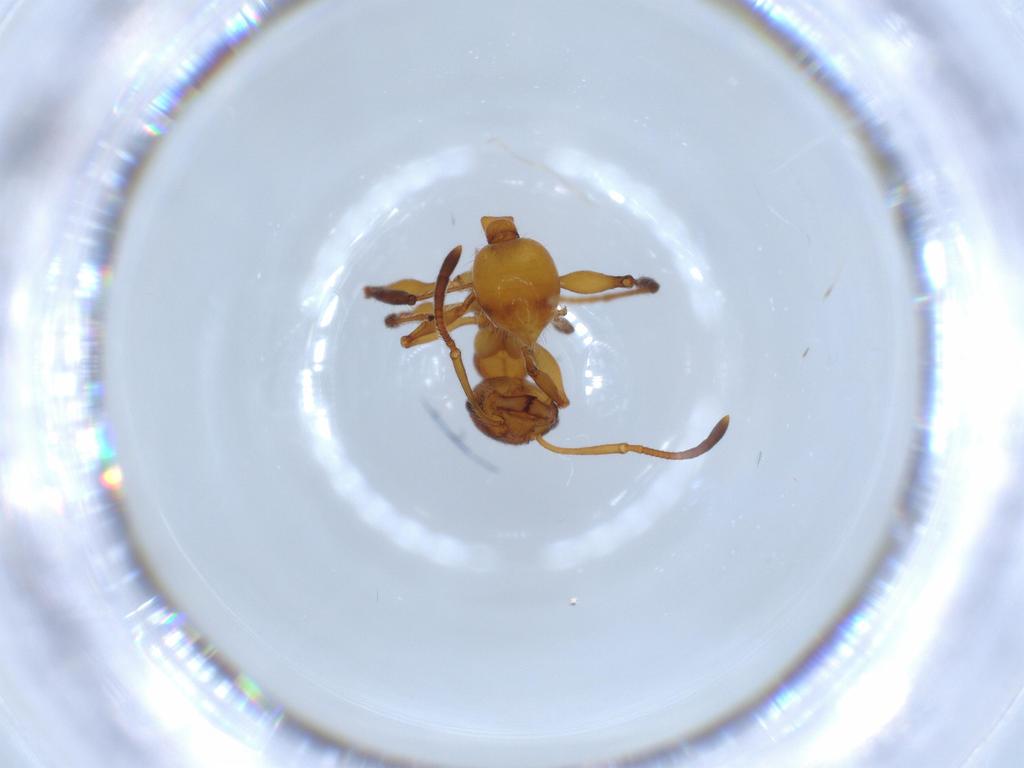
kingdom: Animalia
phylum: Arthropoda
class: Insecta
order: Hymenoptera
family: Formicidae
